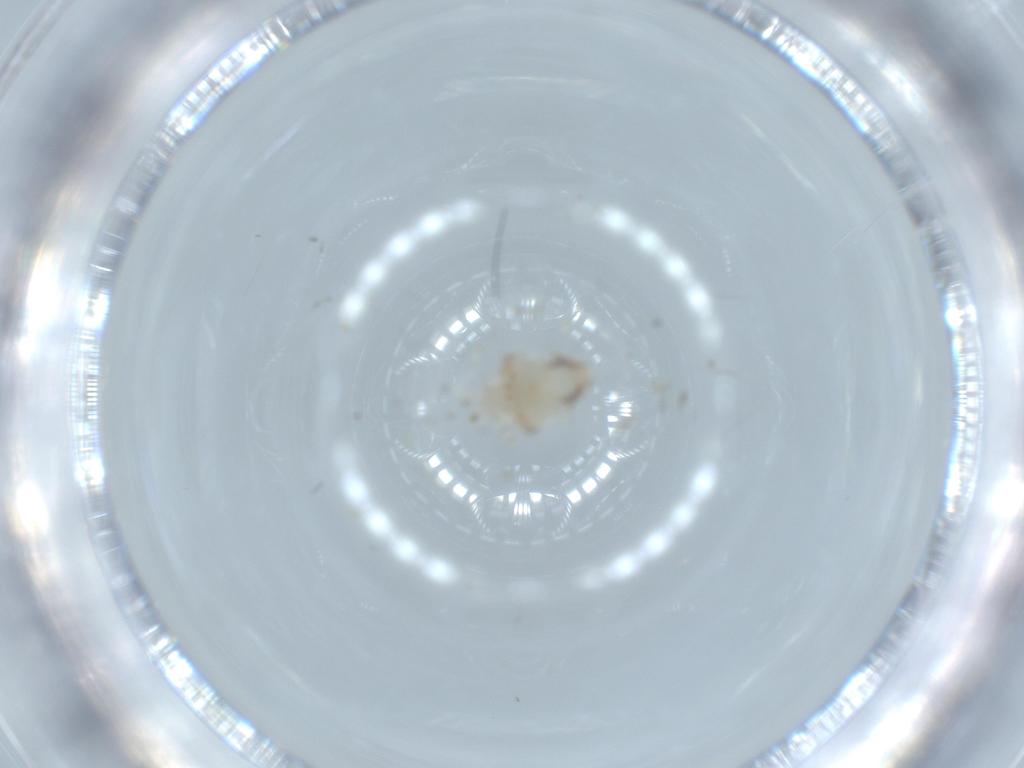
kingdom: Animalia
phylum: Arthropoda
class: Insecta
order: Hemiptera
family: Nogodinidae
